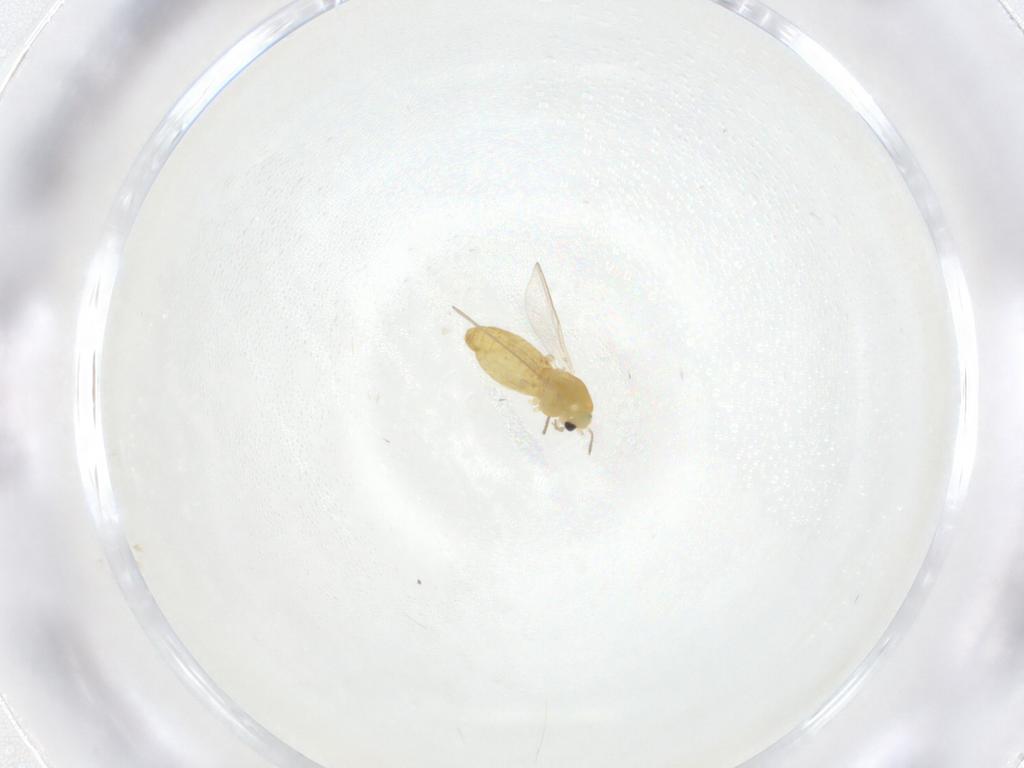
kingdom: Animalia
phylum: Arthropoda
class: Insecta
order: Diptera
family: Chironomidae
